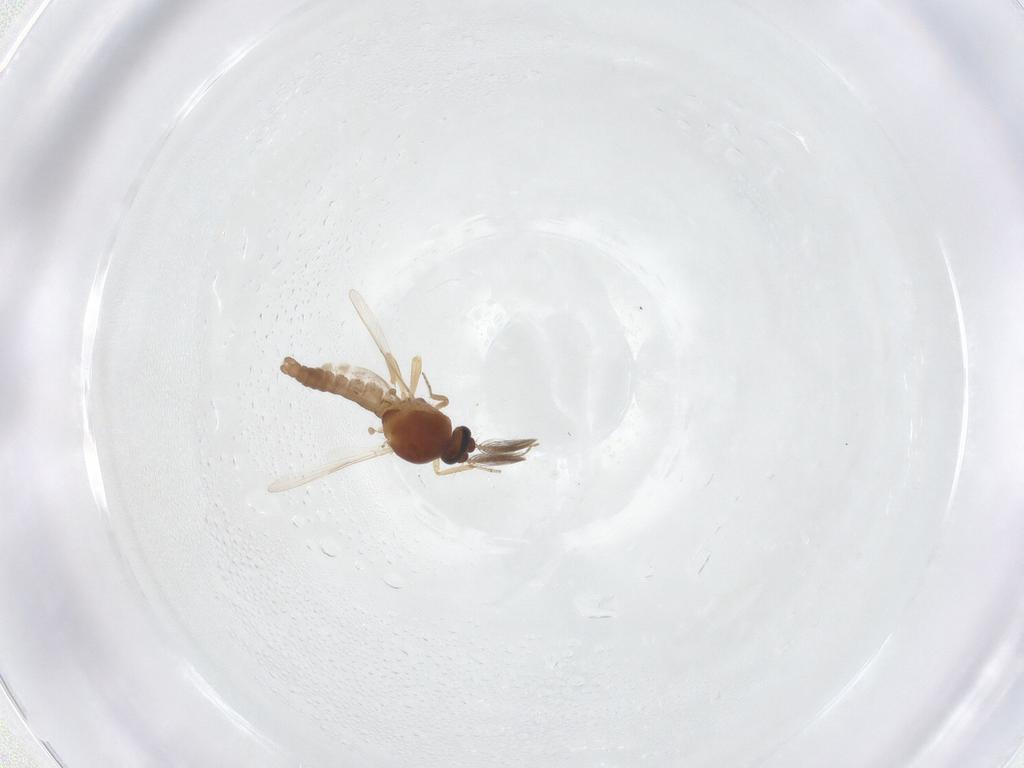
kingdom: Animalia
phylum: Arthropoda
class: Insecta
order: Diptera
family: Ceratopogonidae
